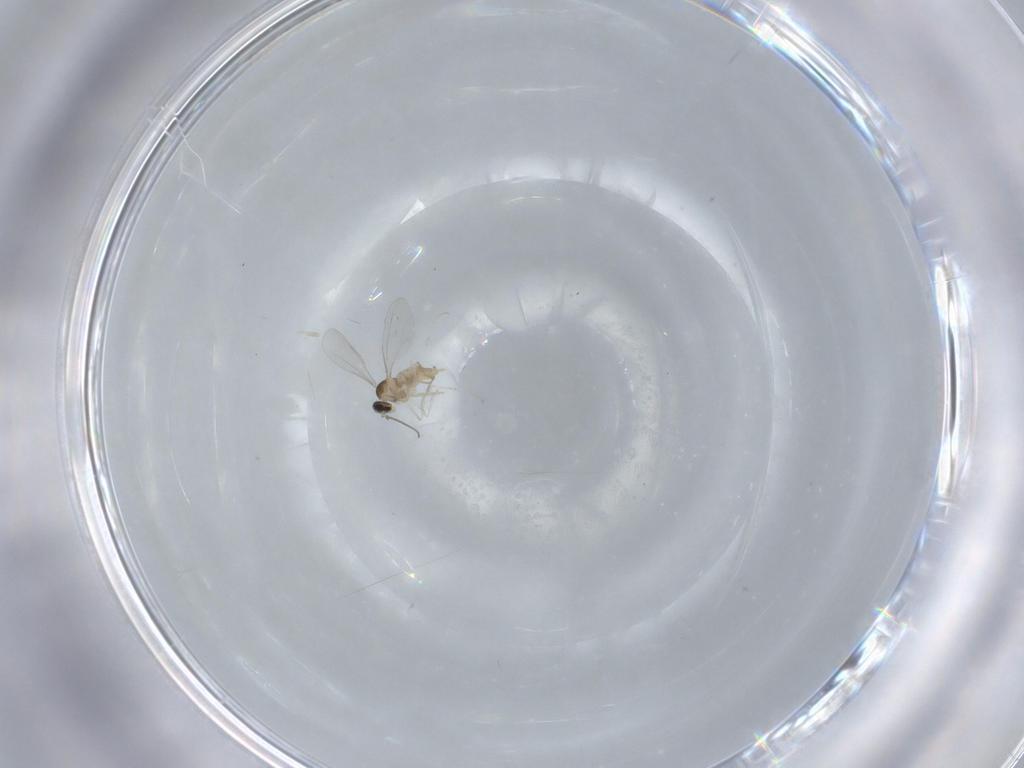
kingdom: Animalia
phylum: Arthropoda
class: Insecta
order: Diptera
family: Cecidomyiidae
